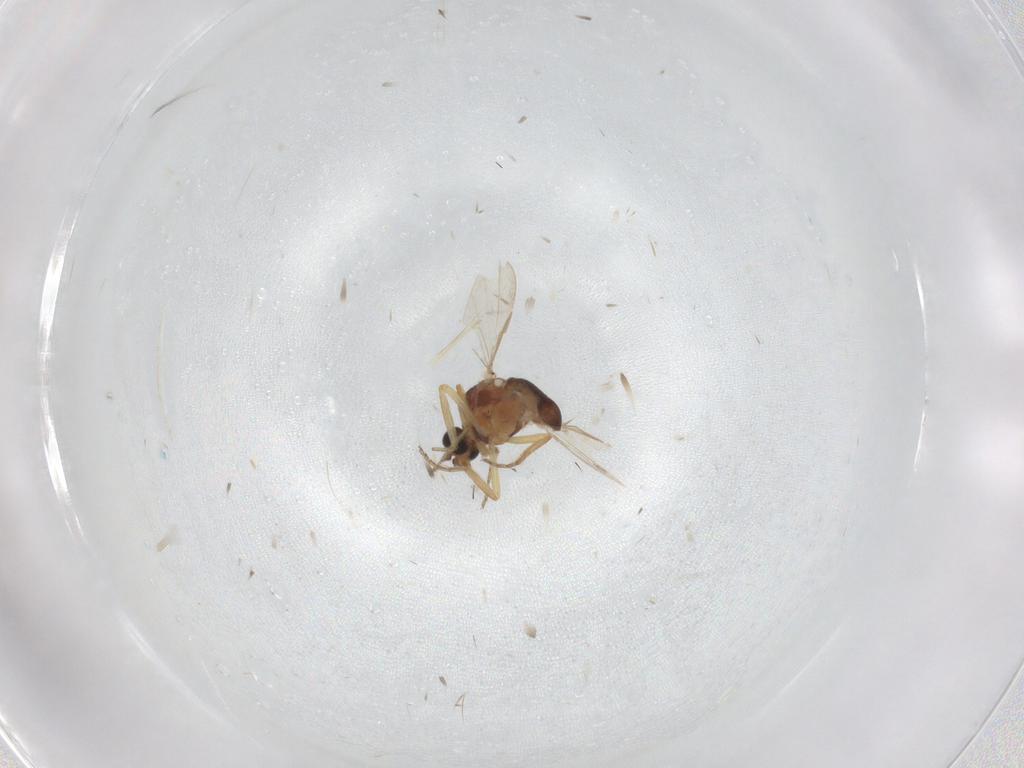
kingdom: Animalia
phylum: Arthropoda
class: Insecta
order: Diptera
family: Ceratopogonidae
